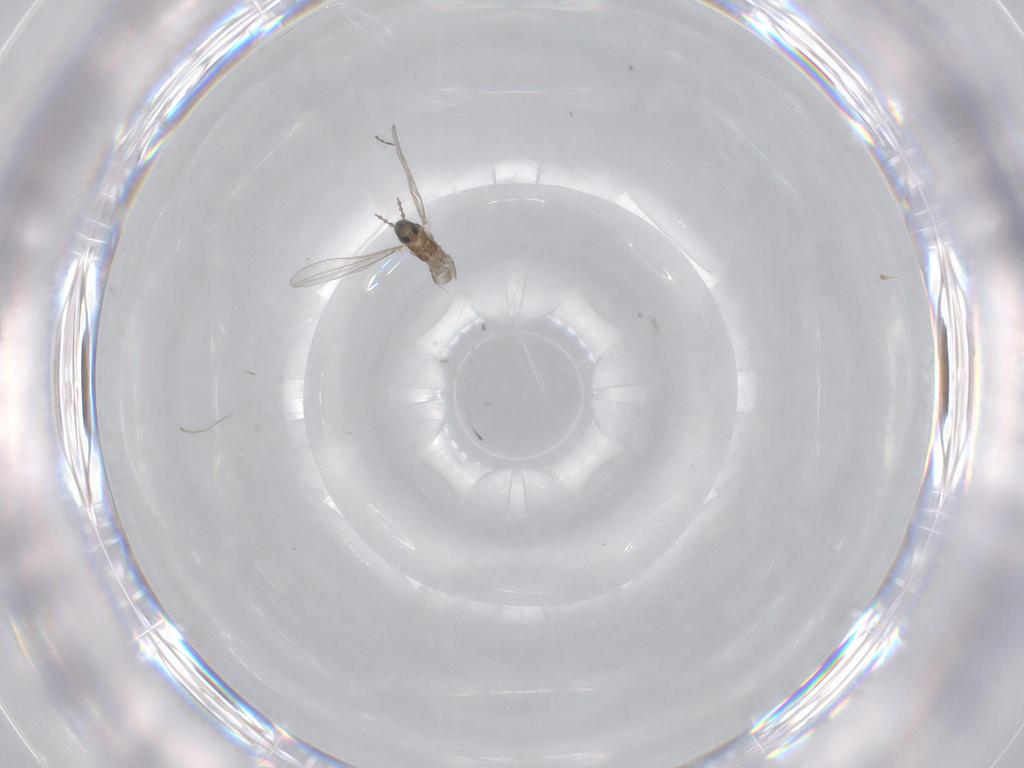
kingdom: Animalia
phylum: Arthropoda
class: Insecta
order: Diptera
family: Cecidomyiidae
